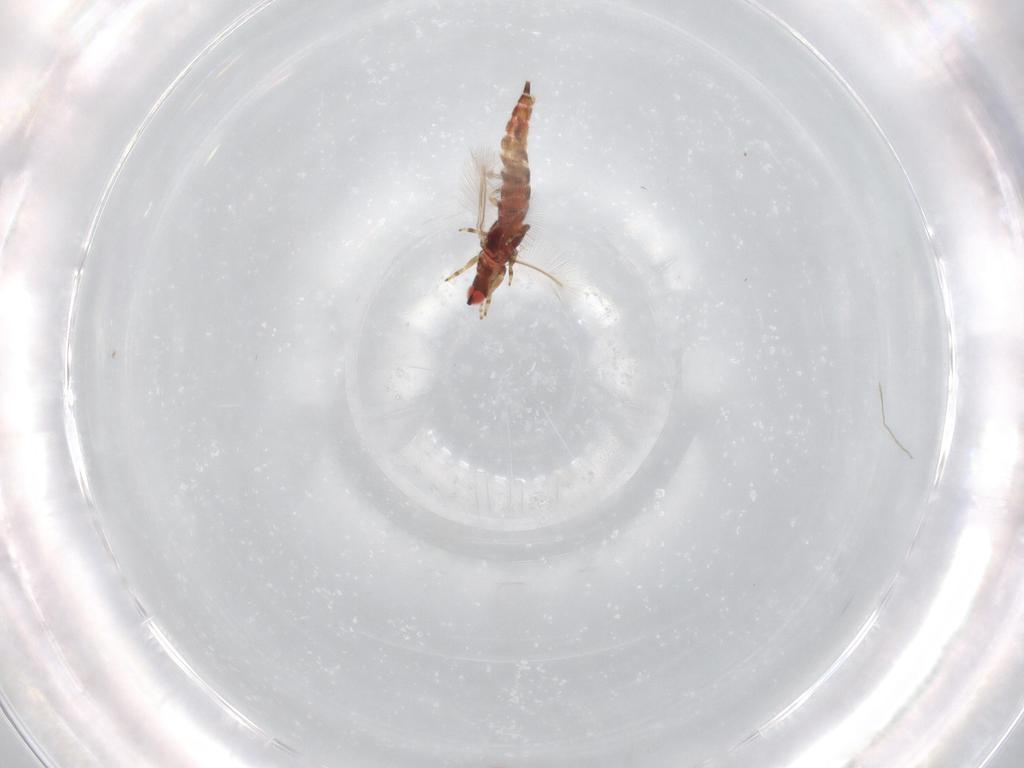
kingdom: Animalia
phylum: Arthropoda
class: Insecta
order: Thysanoptera
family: Phlaeothripidae
